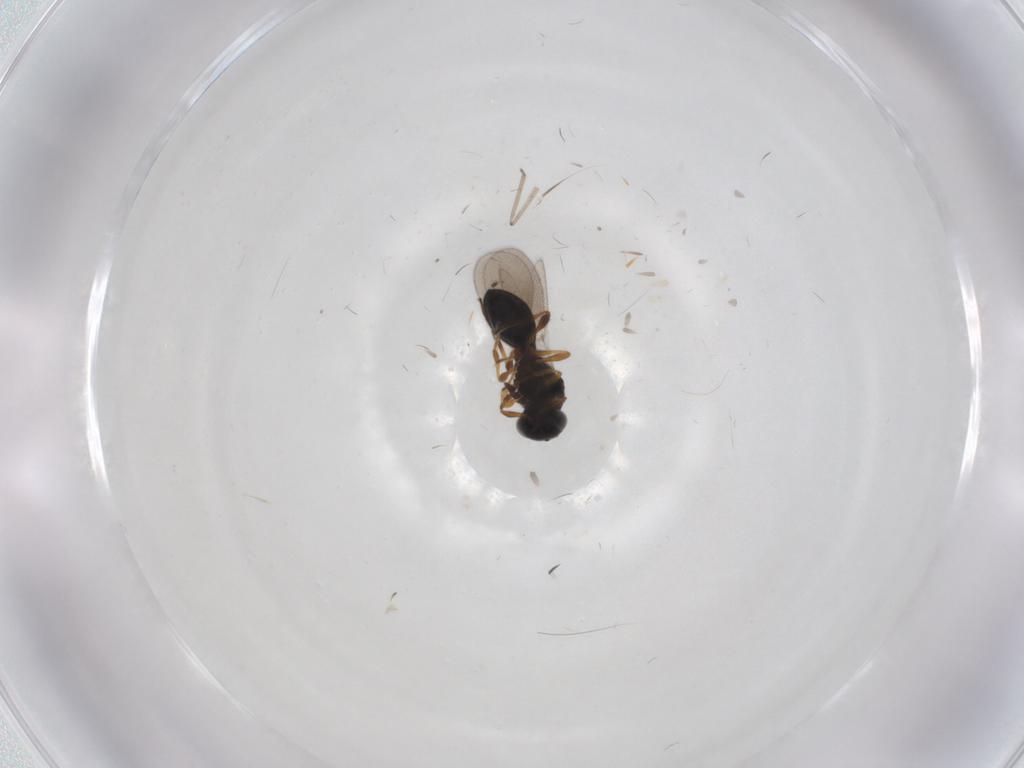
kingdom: Animalia
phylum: Arthropoda
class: Insecta
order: Hymenoptera
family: Platygastridae
